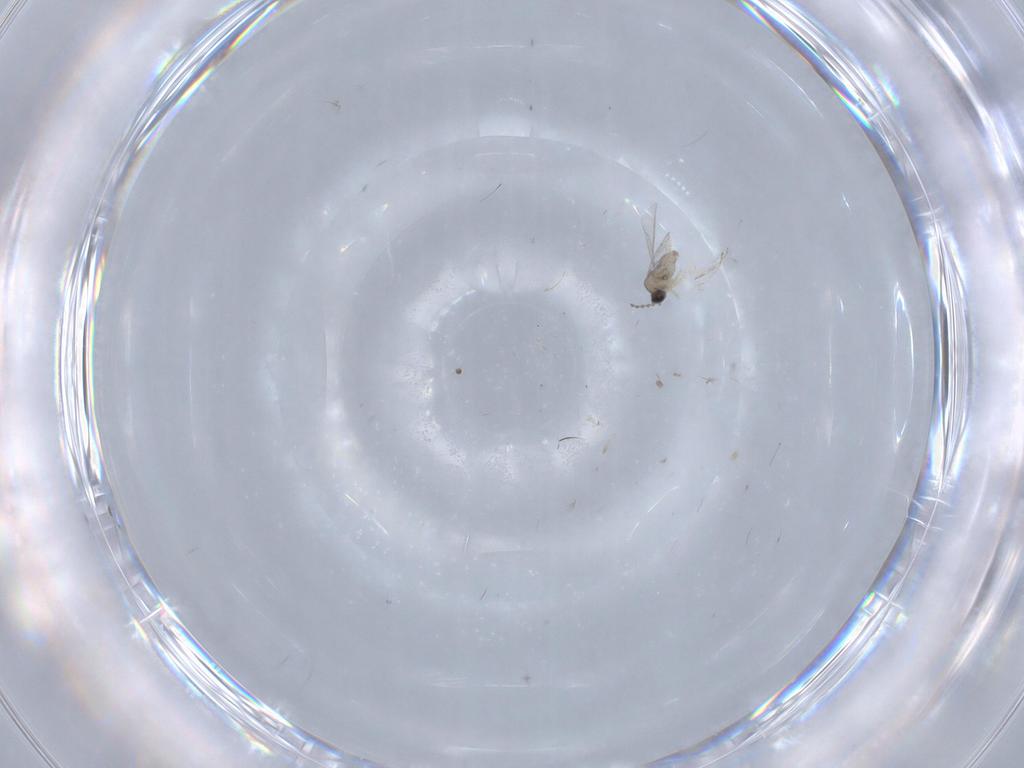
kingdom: Animalia
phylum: Arthropoda
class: Insecta
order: Diptera
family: Cecidomyiidae
